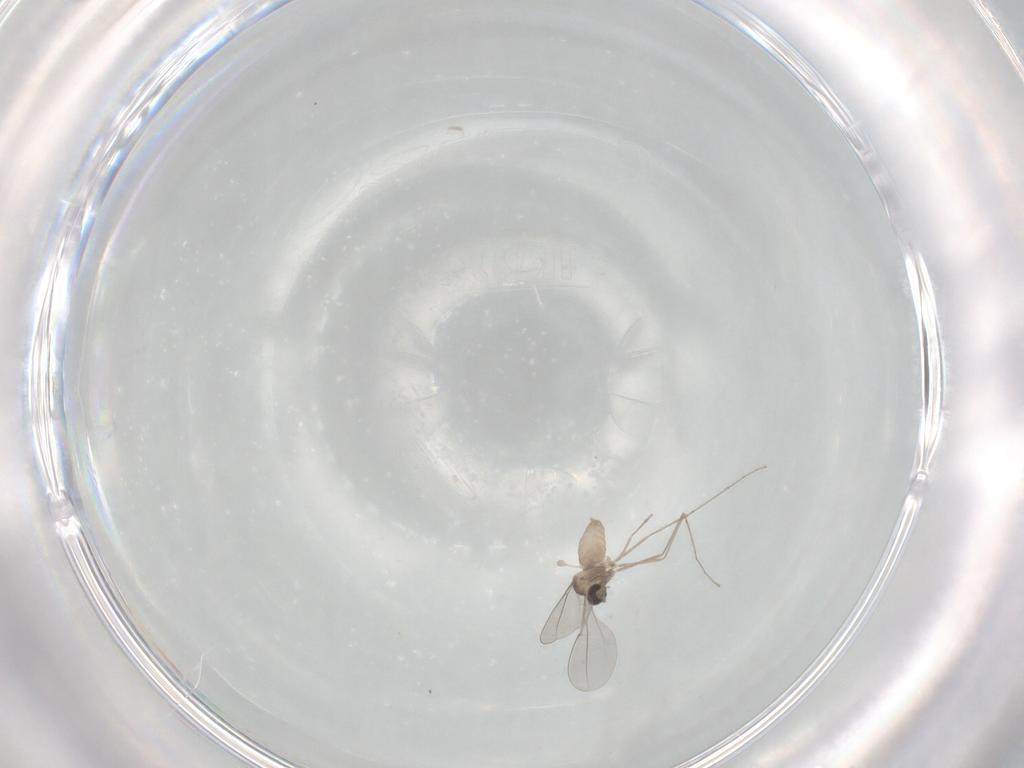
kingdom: Animalia
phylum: Arthropoda
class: Insecta
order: Diptera
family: Cecidomyiidae
